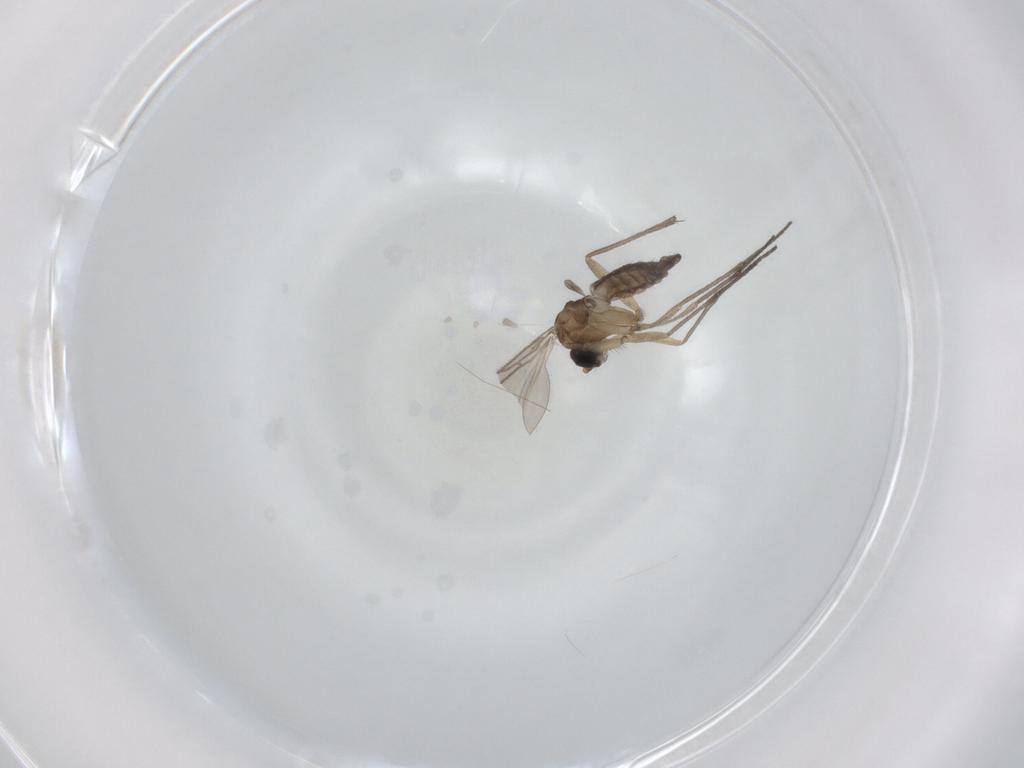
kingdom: Animalia
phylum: Arthropoda
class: Insecta
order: Diptera
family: Sciaridae
